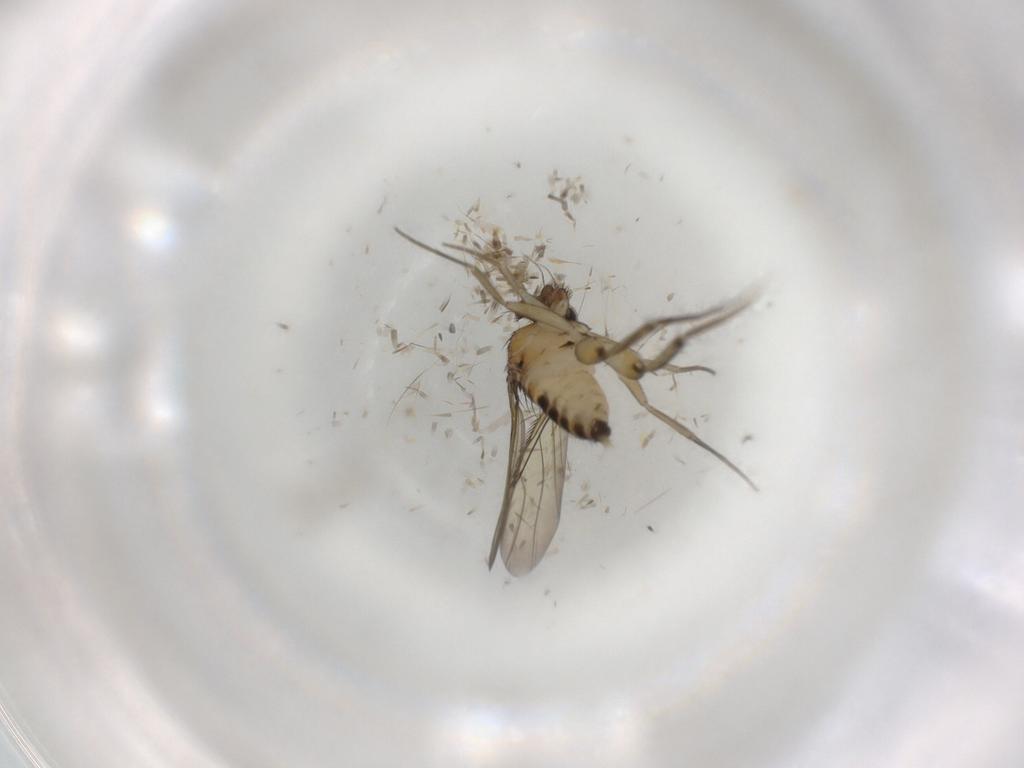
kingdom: Animalia
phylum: Arthropoda
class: Insecta
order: Diptera
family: Phoridae
